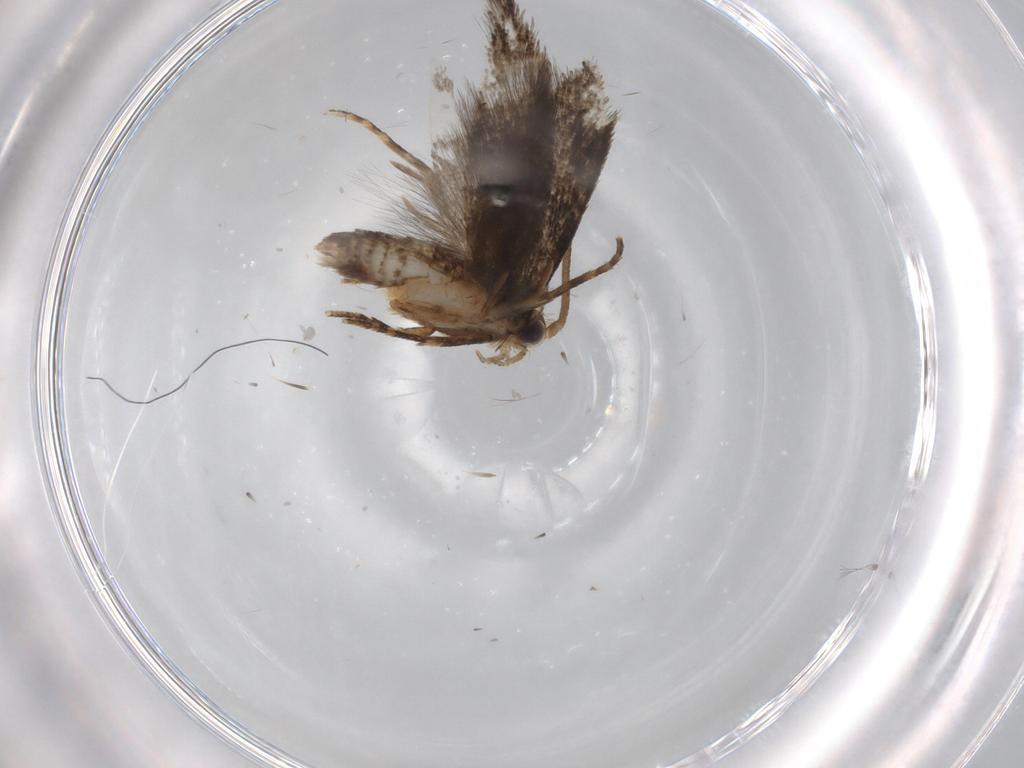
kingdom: Animalia
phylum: Arthropoda
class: Insecta
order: Lepidoptera
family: Tineidae
